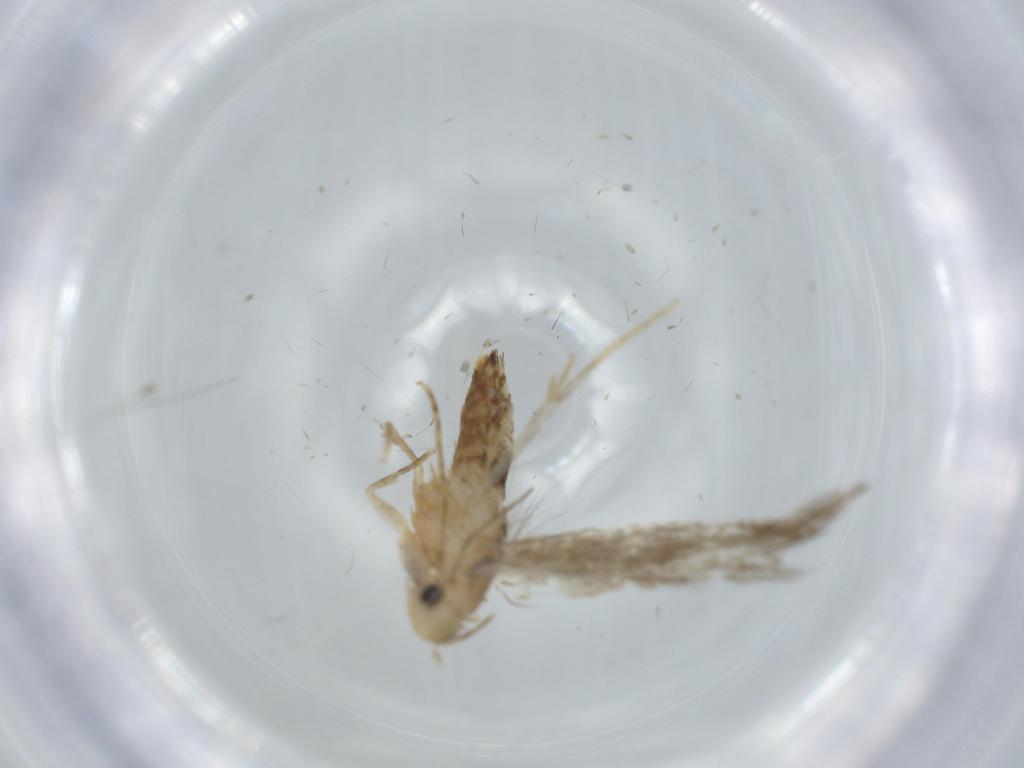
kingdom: Animalia
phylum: Arthropoda
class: Insecta
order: Lepidoptera
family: Tineidae
